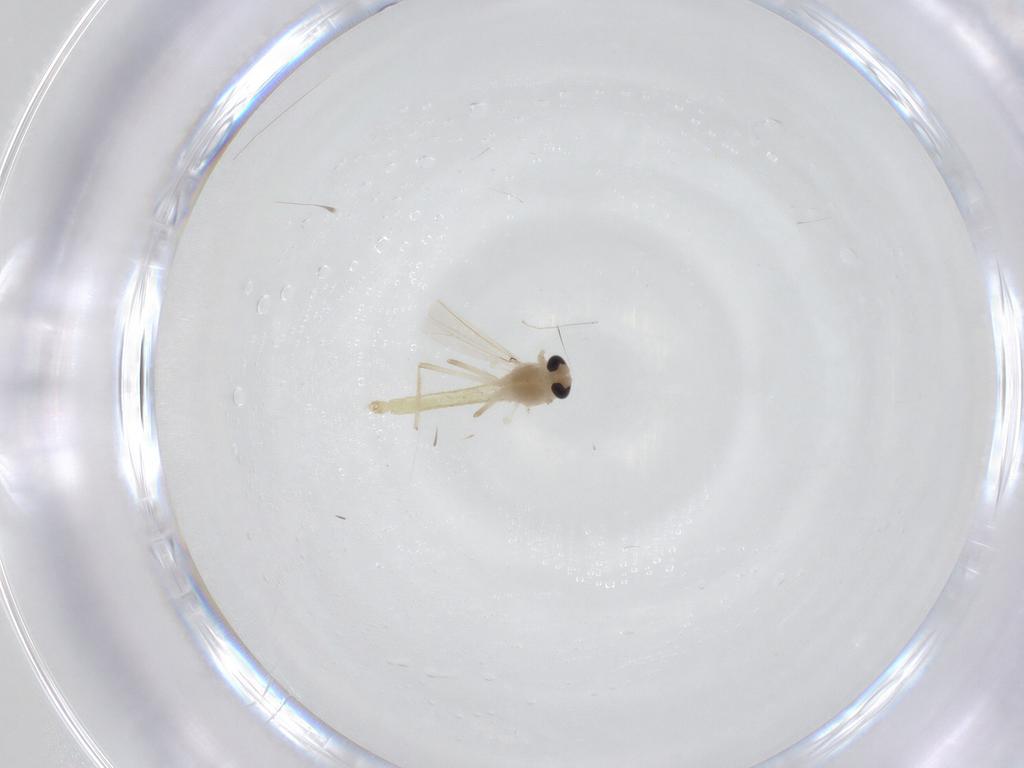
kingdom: Animalia
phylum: Arthropoda
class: Insecta
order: Diptera
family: Chironomidae
